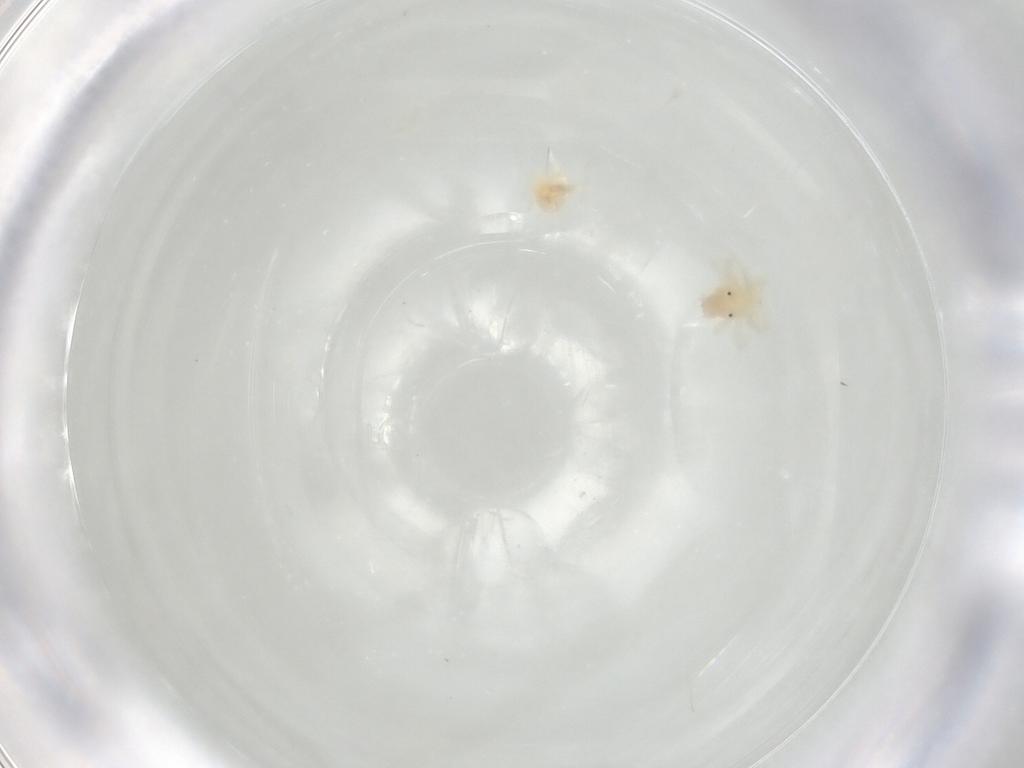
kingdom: Animalia
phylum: Arthropoda
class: Arachnida
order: Trombidiformes
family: Anystidae
